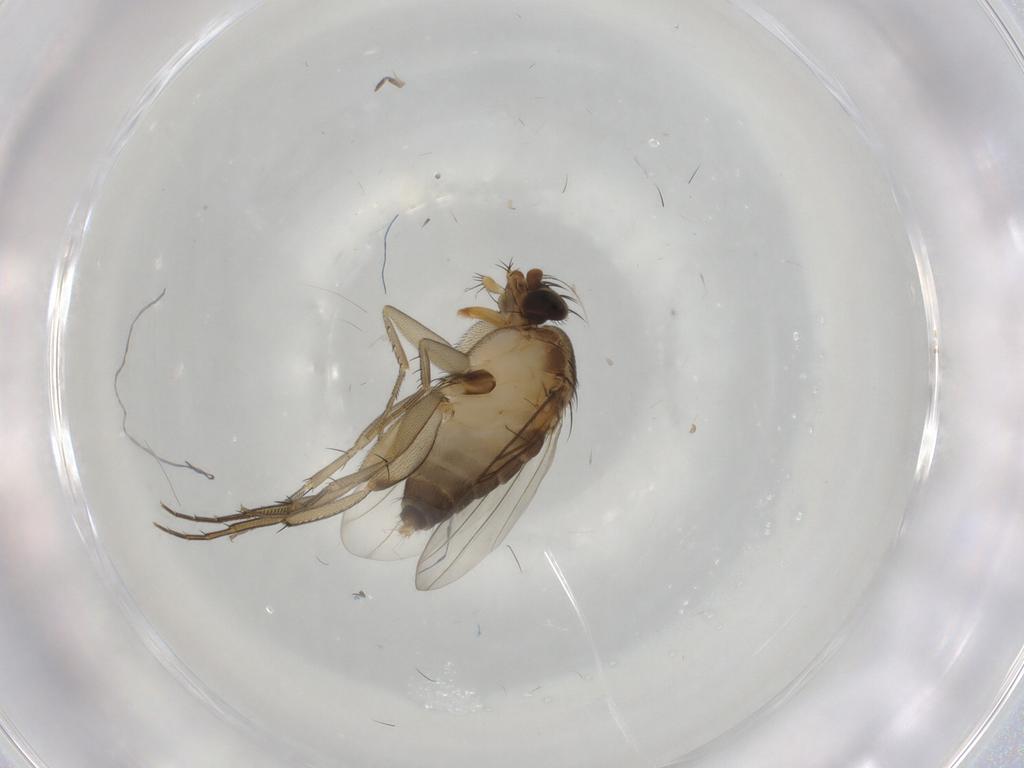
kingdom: Animalia
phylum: Arthropoda
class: Insecta
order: Diptera
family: Phoridae
